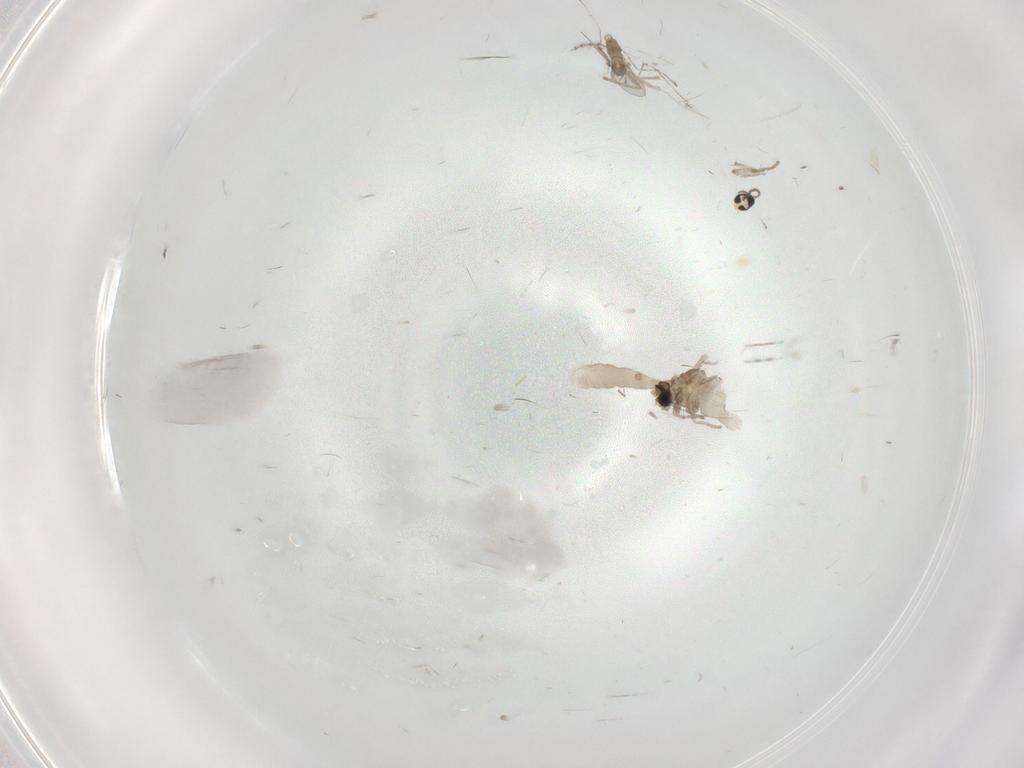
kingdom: Animalia
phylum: Arthropoda
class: Insecta
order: Diptera
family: Cecidomyiidae
